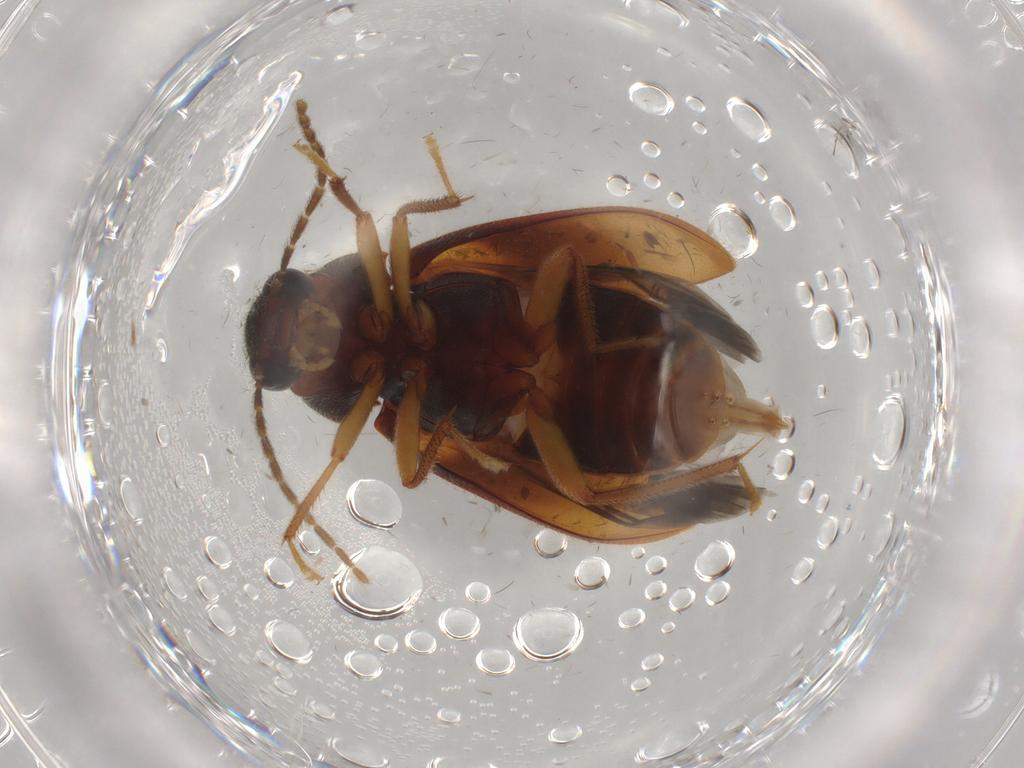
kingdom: Animalia
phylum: Arthropoda
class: Insecta
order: Coleoptera
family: Ptilodactylidae
